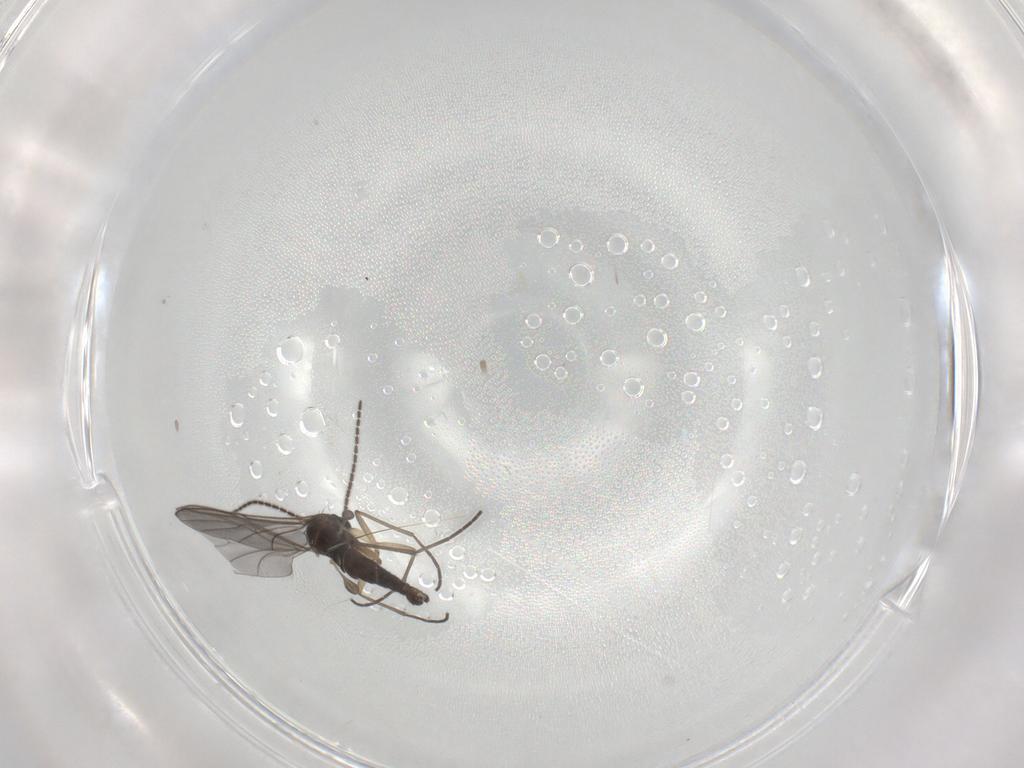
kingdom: Animalia
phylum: Arthropoda
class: Insecta
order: Diptera
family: Sciaridae
